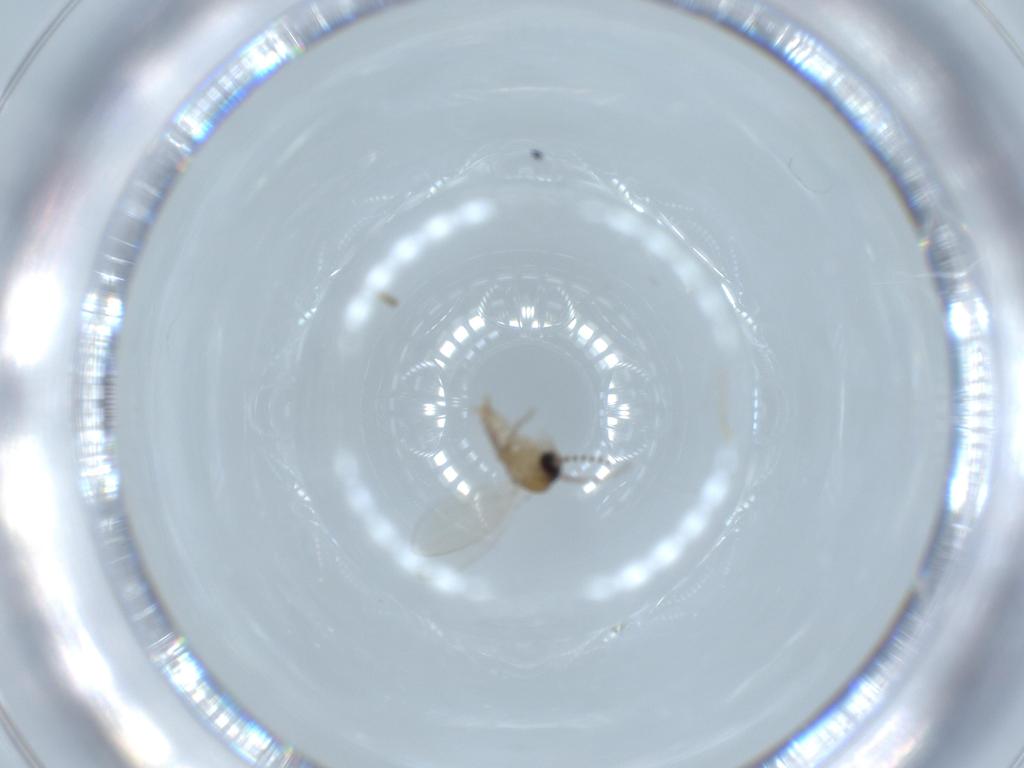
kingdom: Animalia
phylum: Arthropoda
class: Insecta
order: Diptera
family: Psychodidae
